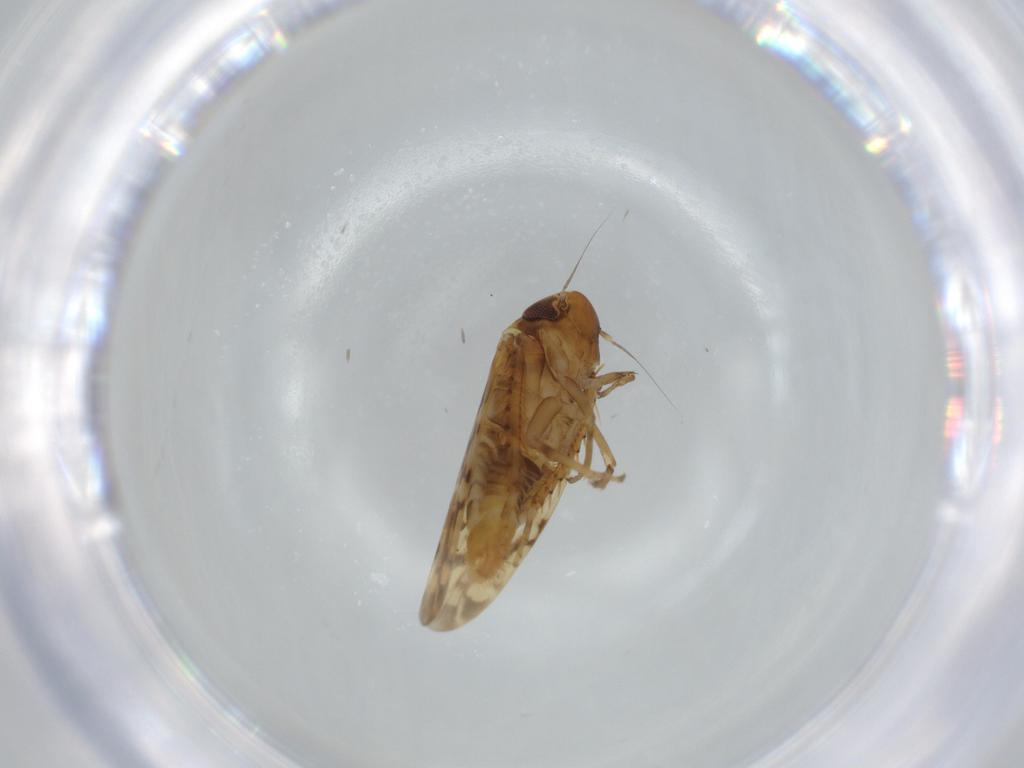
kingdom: Animalia
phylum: Arthropoda
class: Insecta
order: Hemiptera
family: Cicadellidae
